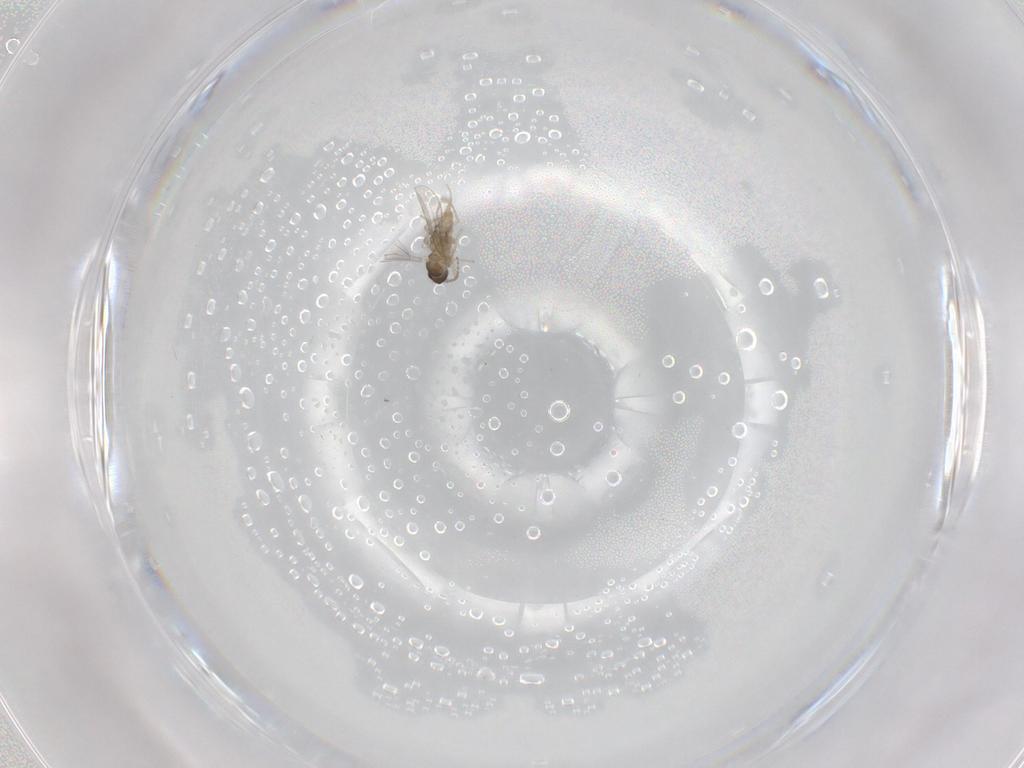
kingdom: Animalia
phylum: Arthropoda
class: Insecta
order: Diptera
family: Cecidomyiidae
